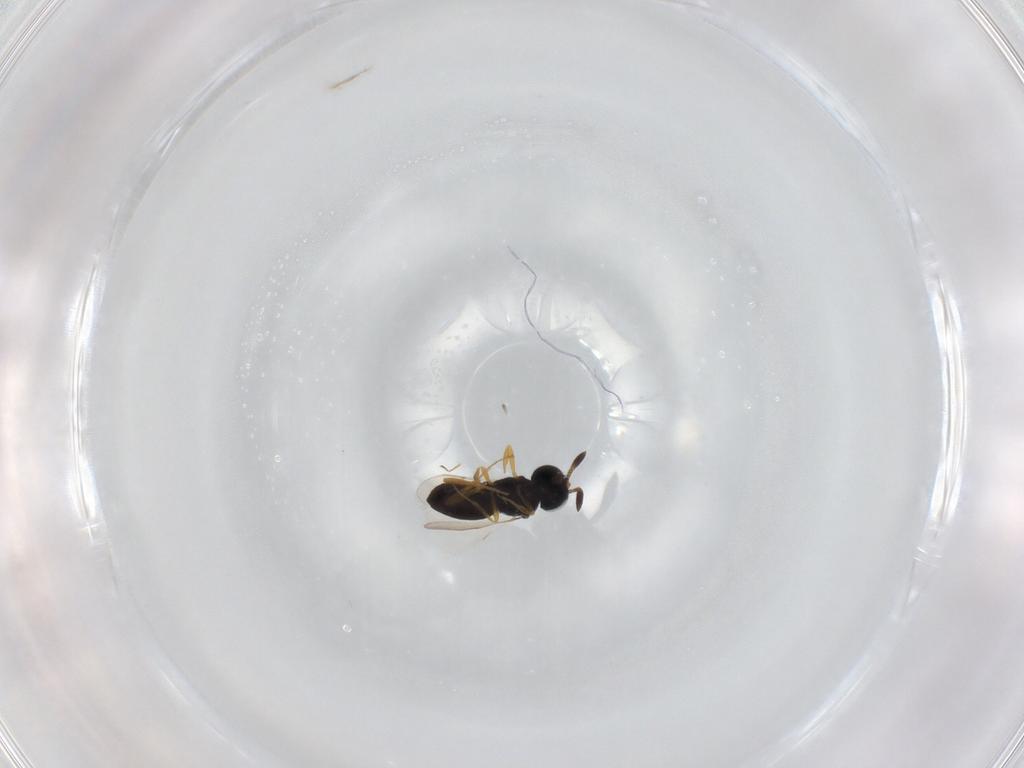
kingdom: Animalia
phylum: Arthropoda
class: Insecta
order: Hymenoptera
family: Scelionidae
